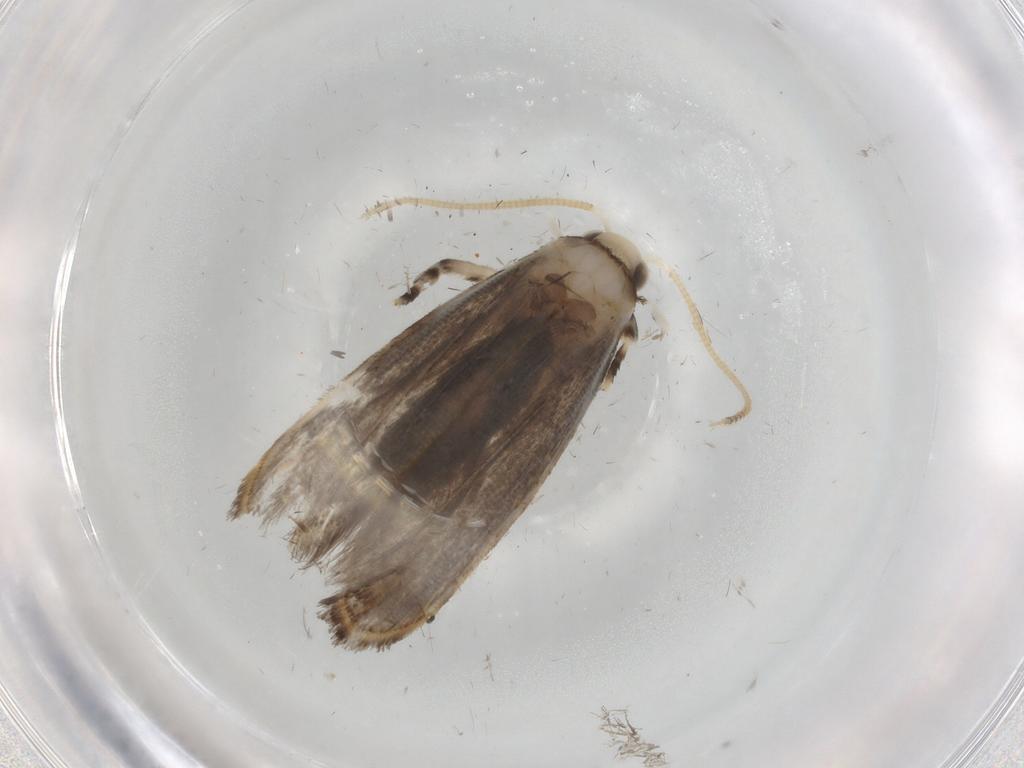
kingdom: Animalia
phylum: Arthropoda
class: Insecta
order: Lepidoptera
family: Dryadaulidae
